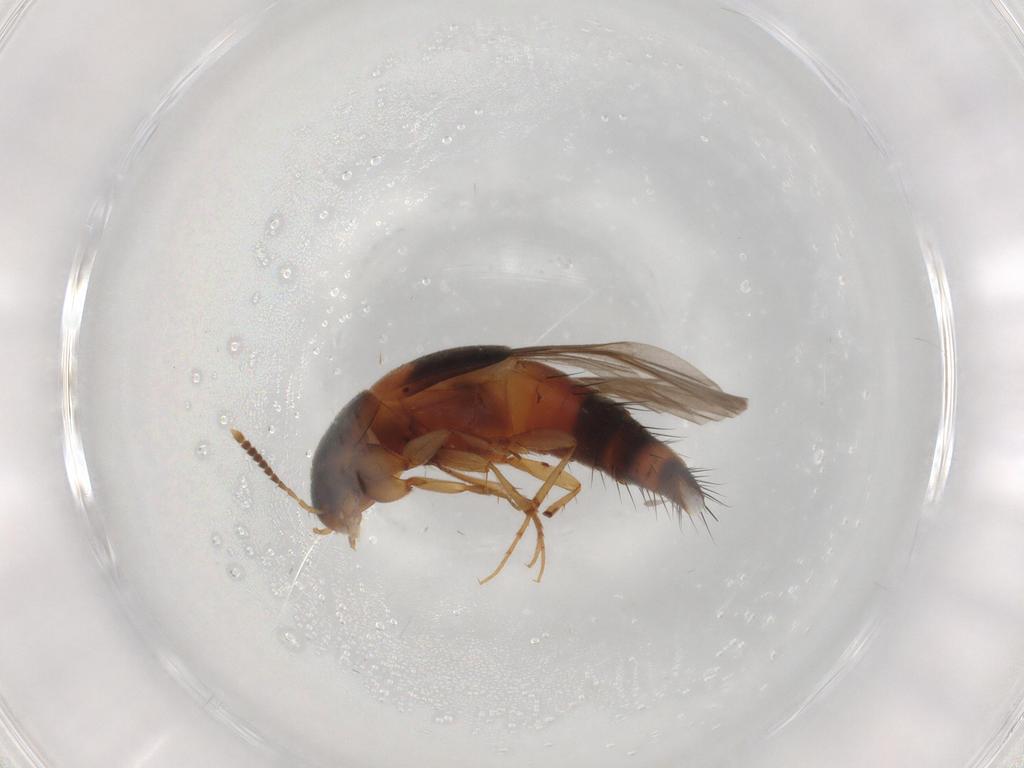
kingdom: Animalia
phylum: Arthropoda
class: Insecta
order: Coleoptera
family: Staphylinidae
